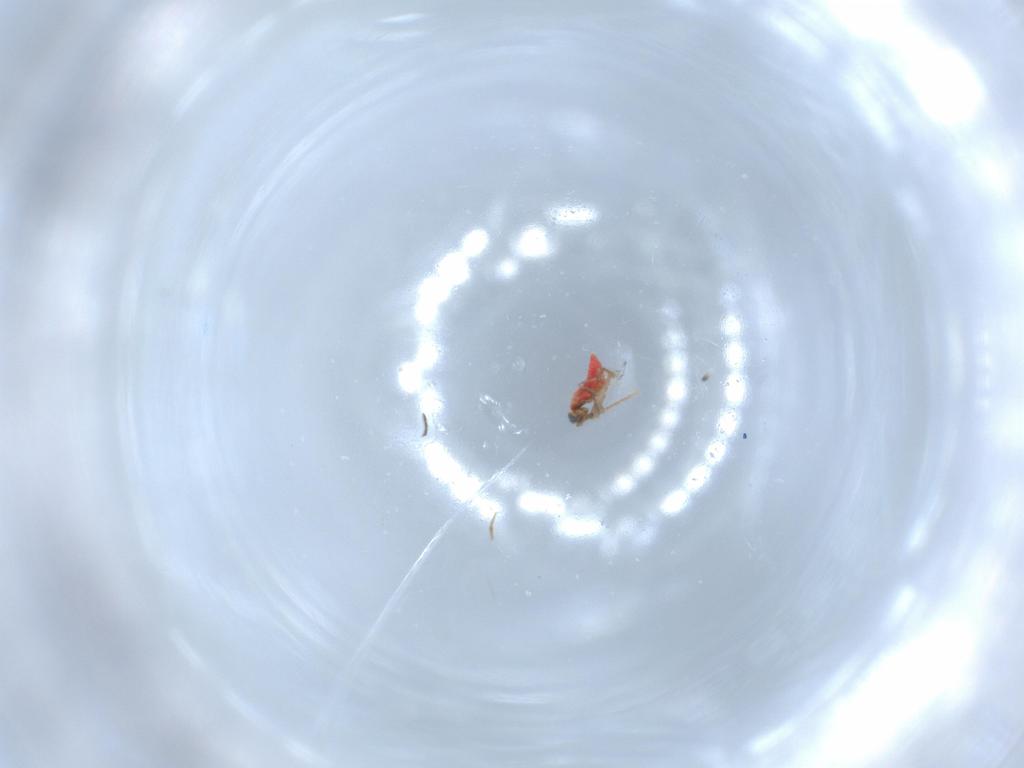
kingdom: Animalia
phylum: Arthropoda
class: Insecta
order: Hymenoptera
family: Trichogrammatidae
